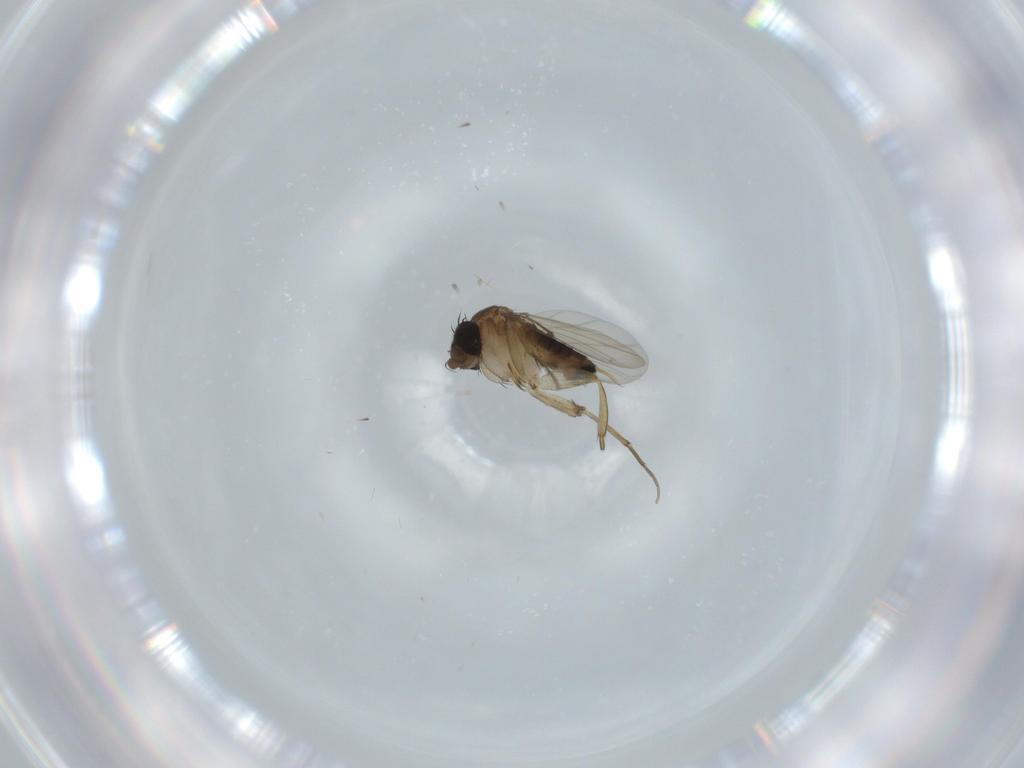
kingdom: Animalia
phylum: Arthropoda
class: Insecta
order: Diptera
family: Phoridae
